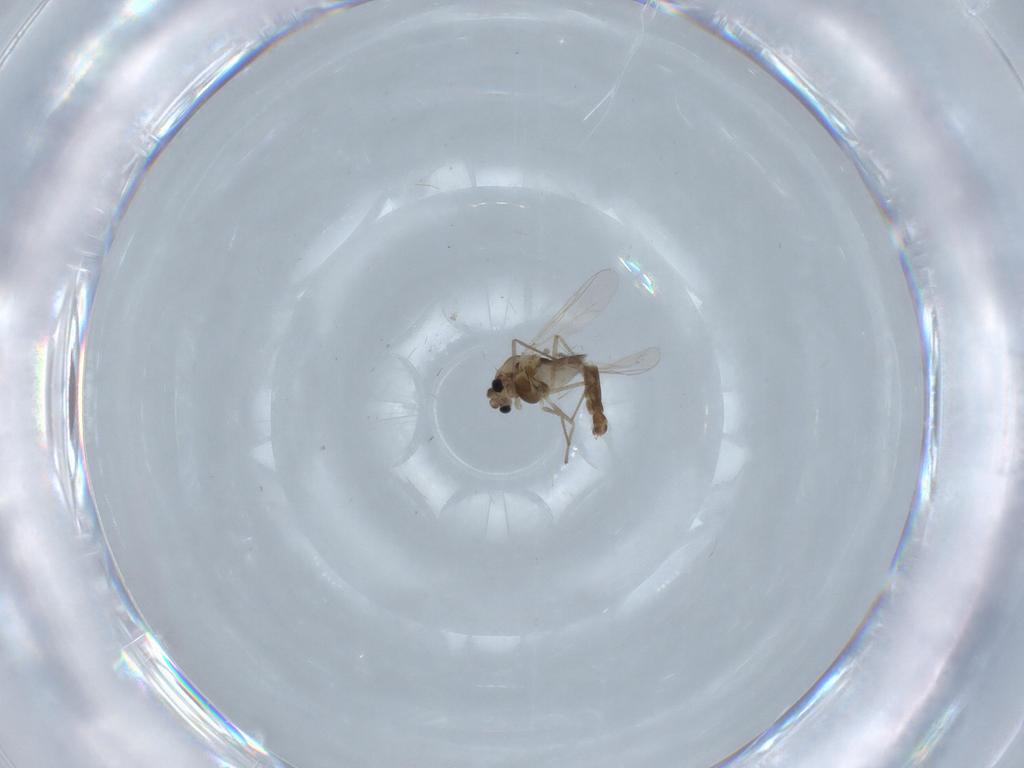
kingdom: Animalia
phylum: Arthropoda
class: Insecta
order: Diptera
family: Chironomidae
